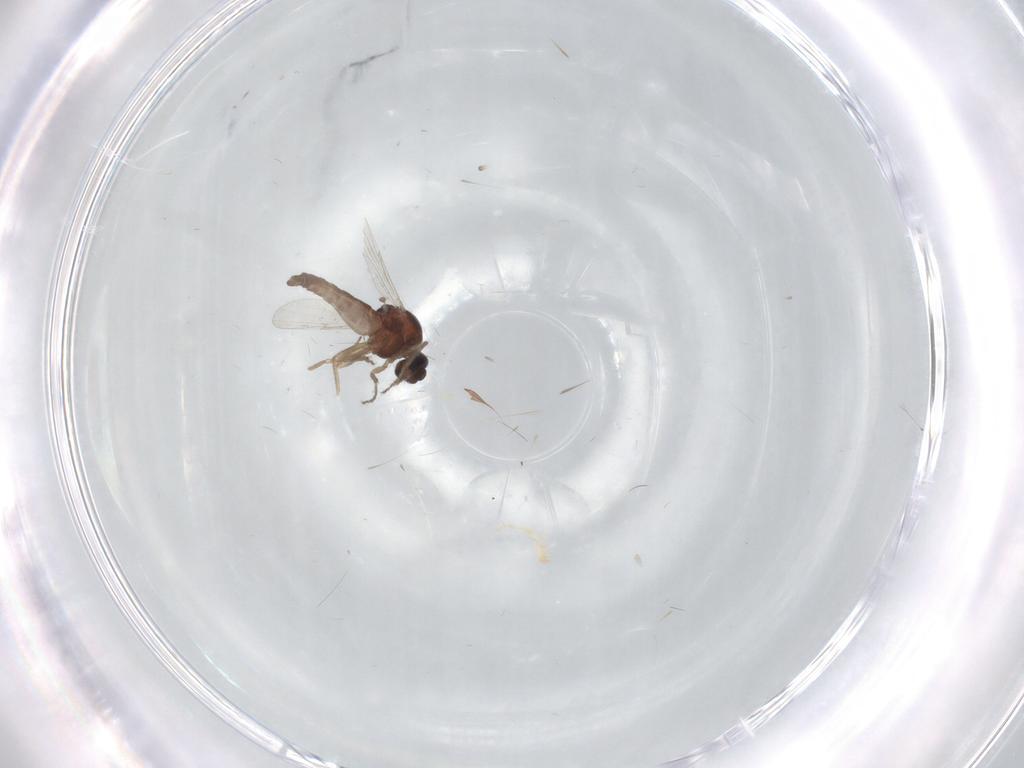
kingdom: Animalia
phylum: Arthropoda
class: Insecta
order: Diptera
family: Ceratopogonidae
